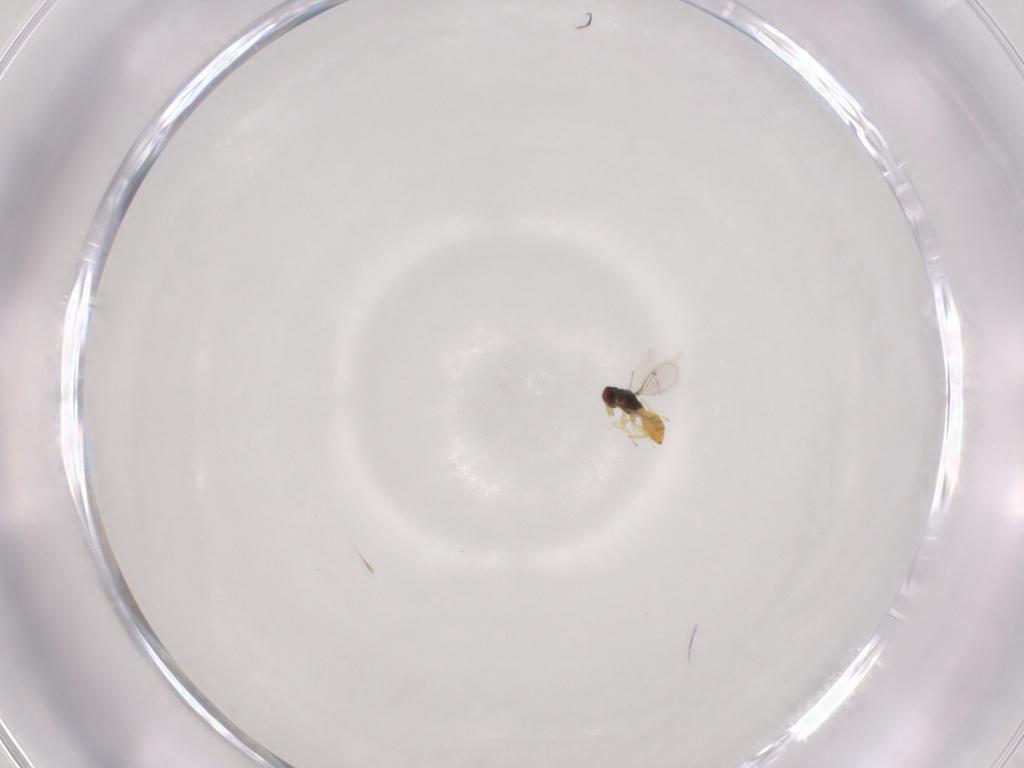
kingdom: Animalia
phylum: Arthropoda
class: Insecta
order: Hymenoptera
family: Eulophidae
